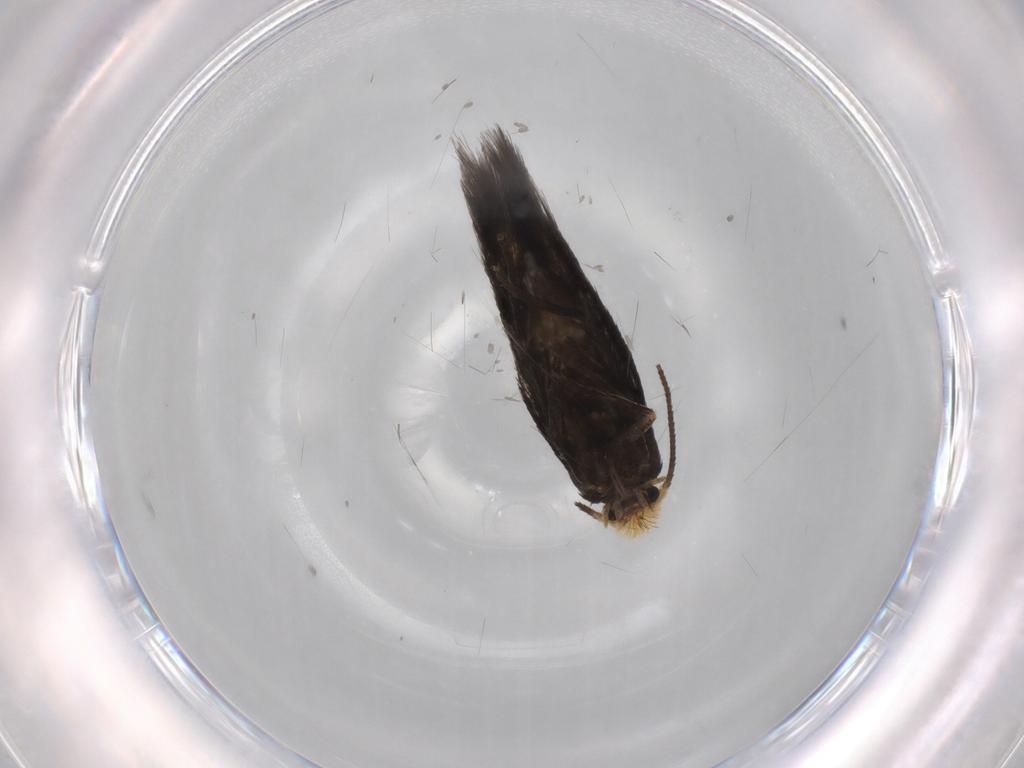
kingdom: Animalia
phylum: Arthropoda
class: Insecta
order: Lepidoptera
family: Nepticulidae
